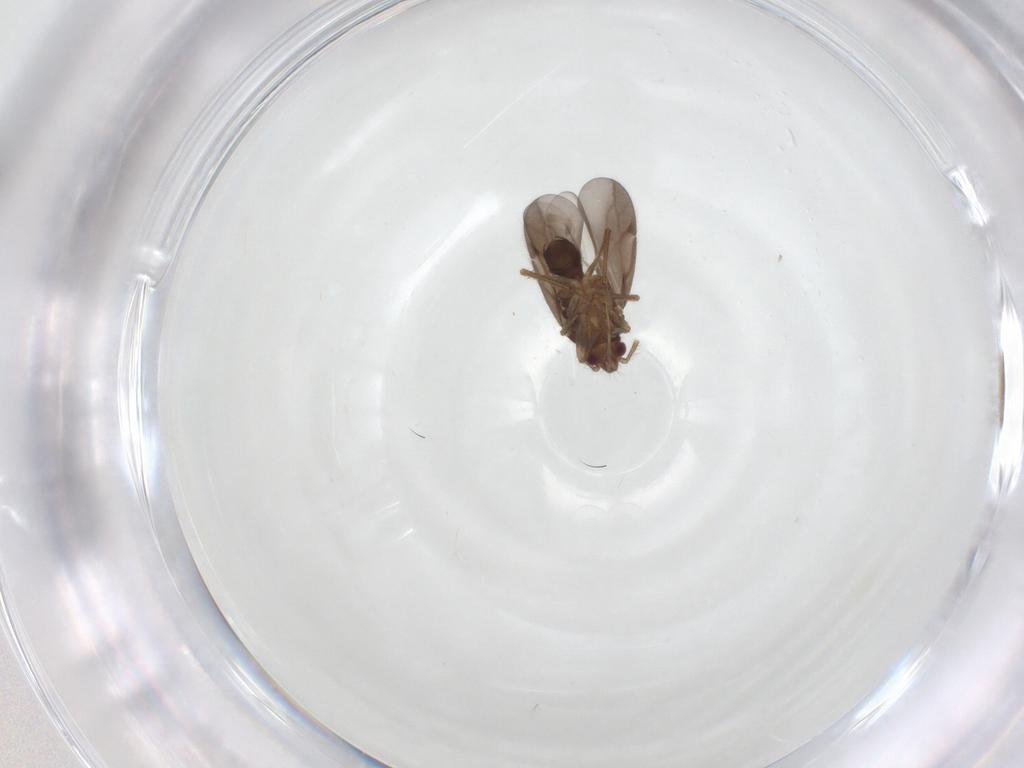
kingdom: Animalia
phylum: Arthropoda
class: Insecta
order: Hemiptera
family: Ceratocombidae
